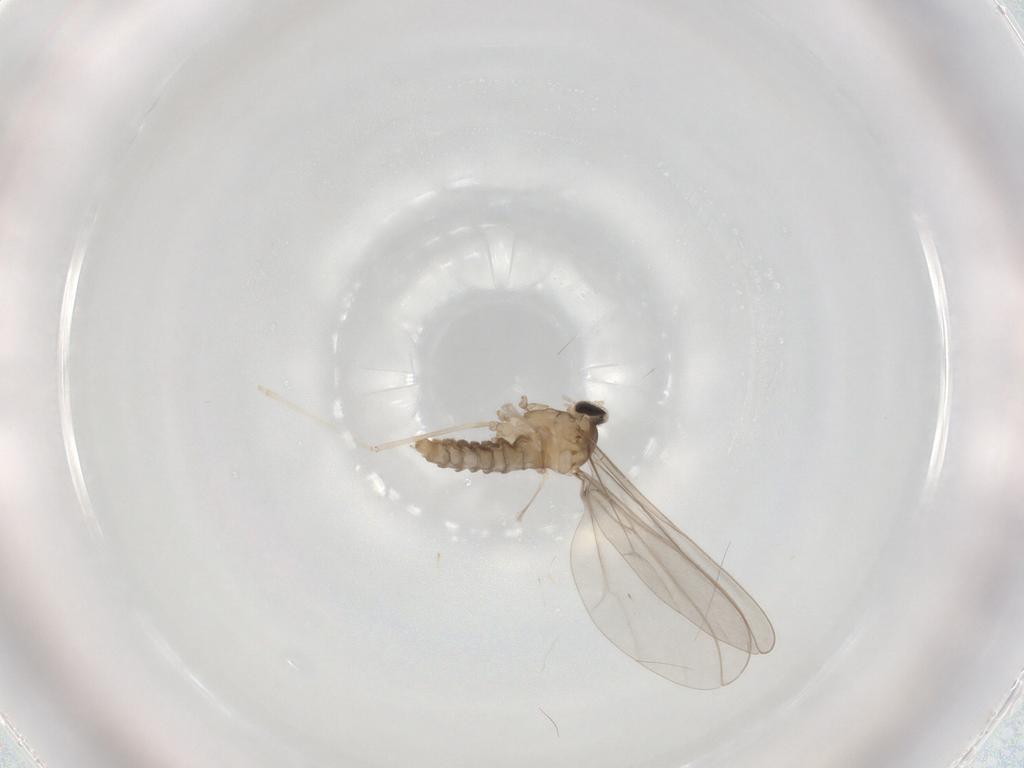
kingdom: Animalia
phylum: Arthropoda
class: Insecta
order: Diptera
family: Cecidomyiidae
